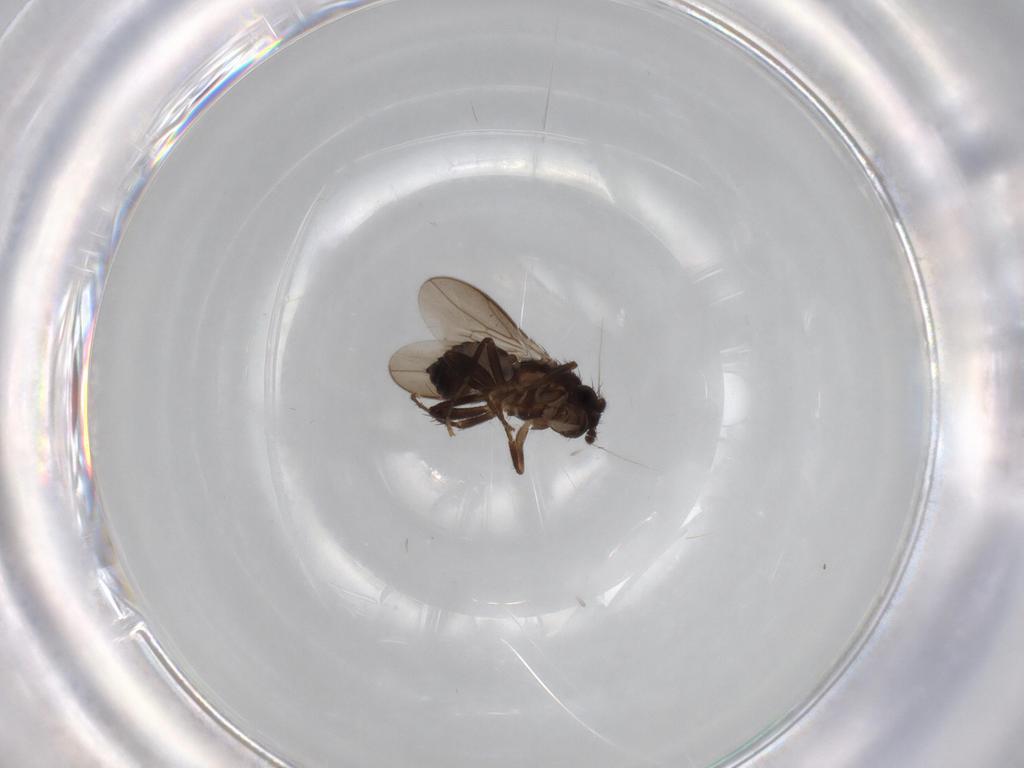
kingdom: Animalia
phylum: Arthropoda
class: Insecta
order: Diptera
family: Sphaeroceridae
